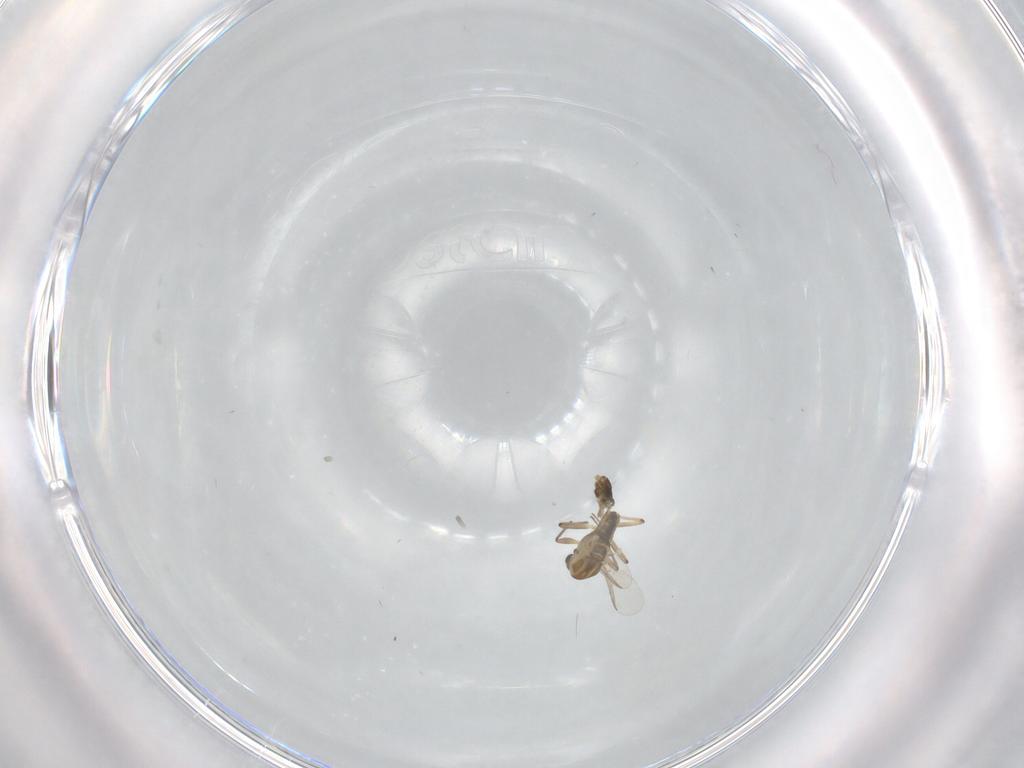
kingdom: Animalia
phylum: Arthropoda
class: Insecta
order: Diptera
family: Chironomidae
